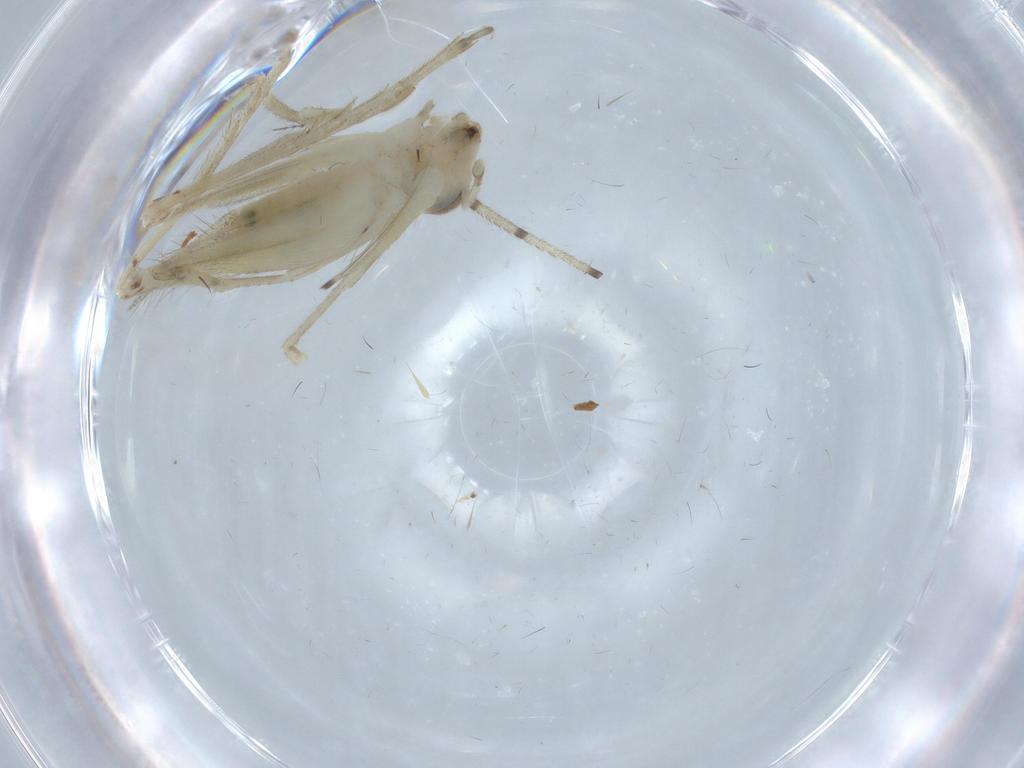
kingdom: Animalia
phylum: Arthropoda
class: Insecta
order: Orthoptera
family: Trigonidiidae
